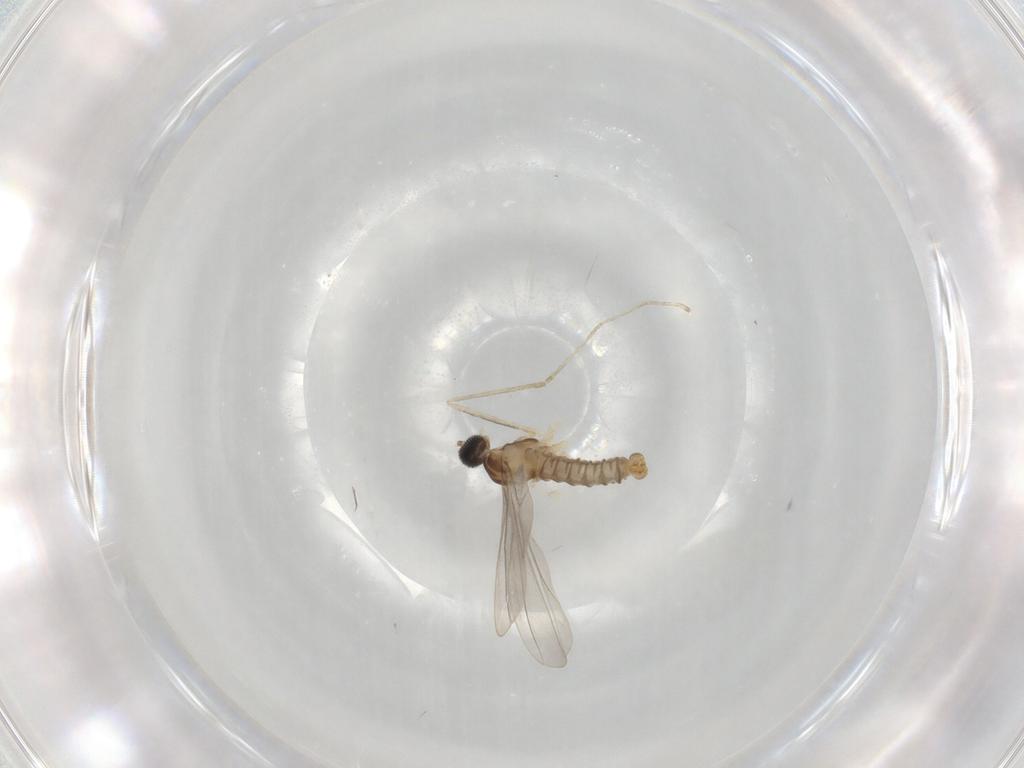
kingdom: Animalia
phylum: Arthropoda
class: Insecta
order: Diptera
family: Cecidomyiidae
